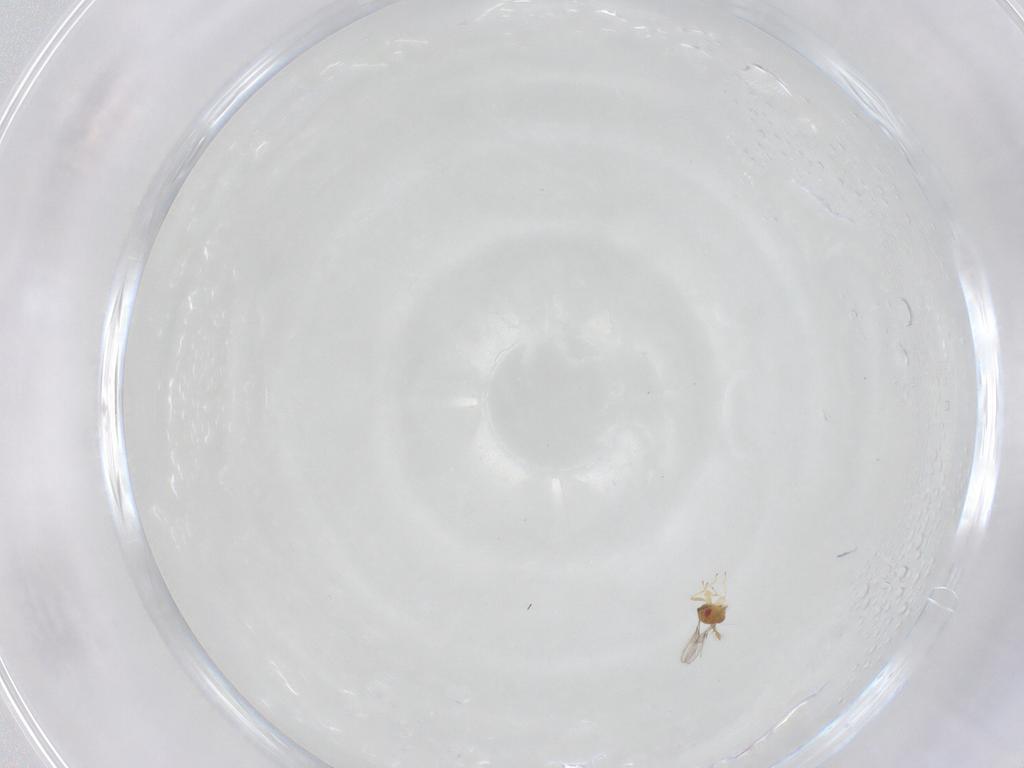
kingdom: Animalia
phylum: Arthropoda
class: Insecta
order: Hymenoptera
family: Trichogrammatidae
